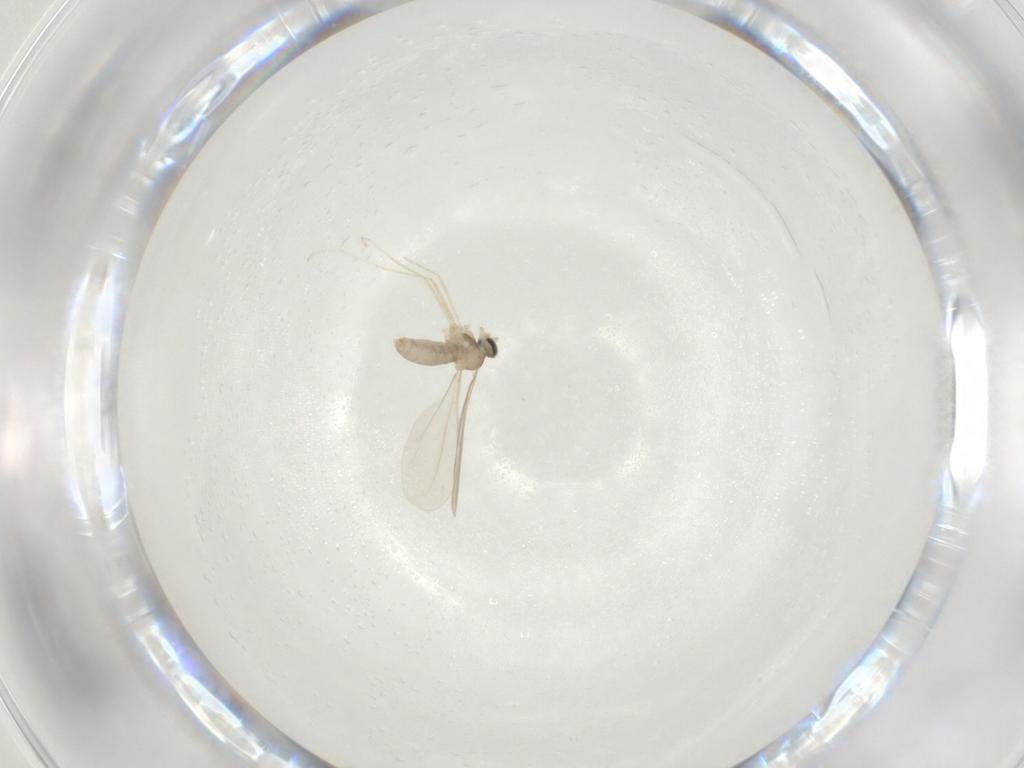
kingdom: Animalia
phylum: Arthropoda
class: Insecta
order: Diptera
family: Cecidomyiidae
